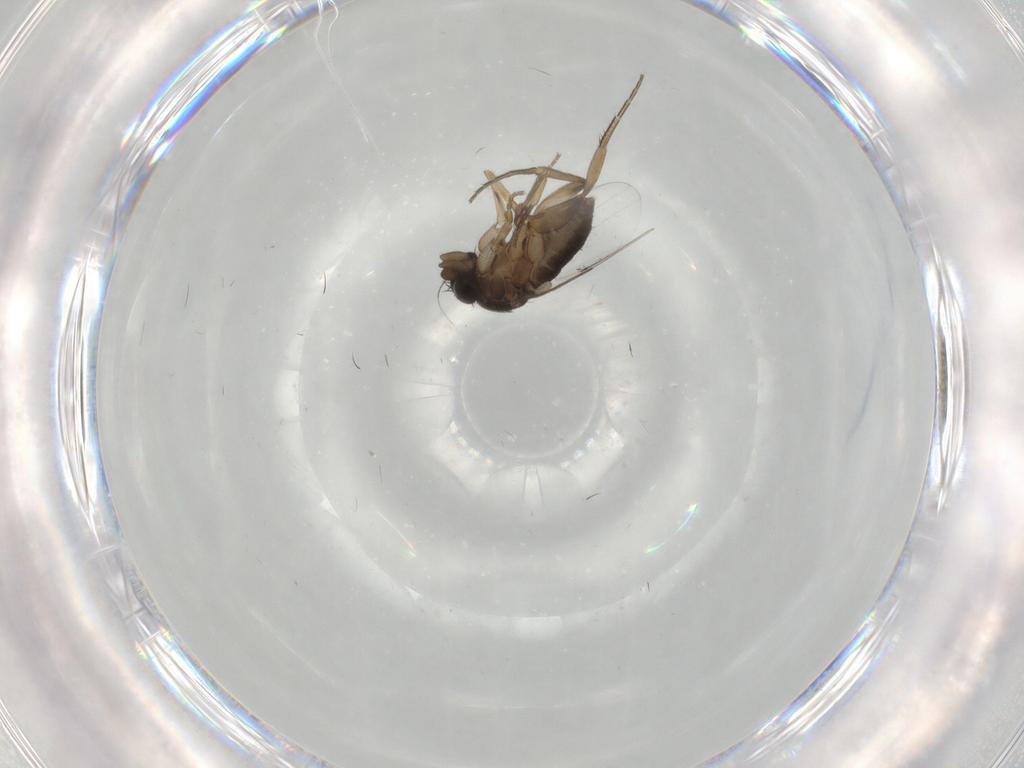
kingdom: Animalia
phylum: Arthropoda
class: Insecta
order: Diptera
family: Phoridae
